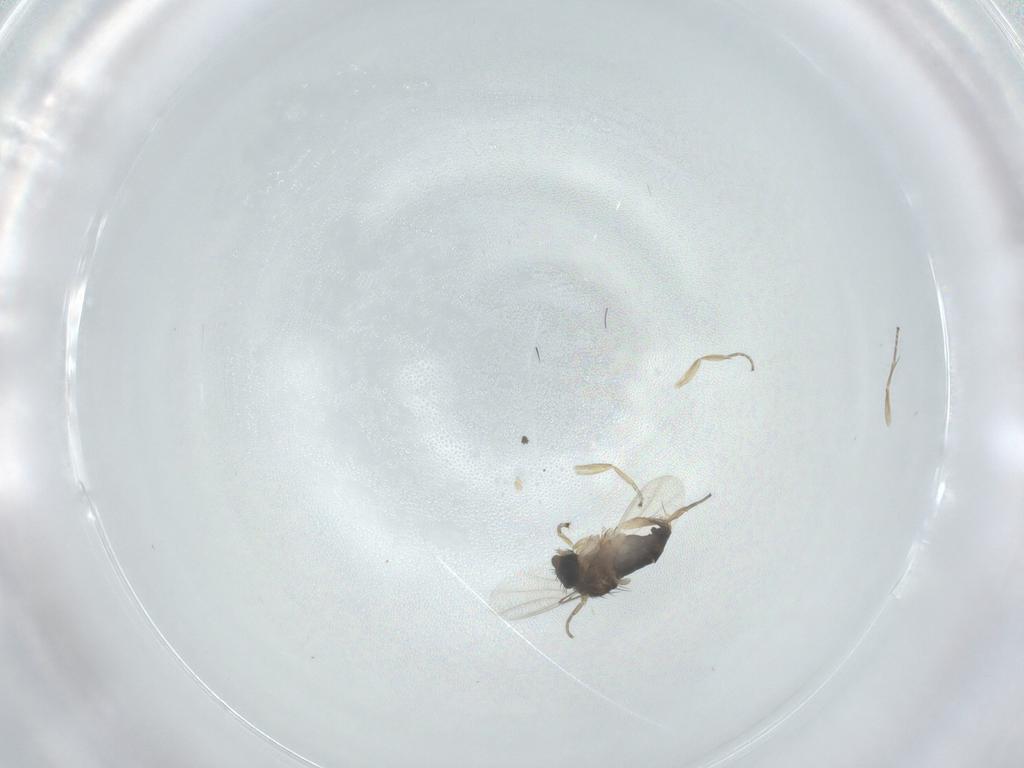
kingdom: Animalia
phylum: Arthropoda
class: Insecta
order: Diptera
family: Phoridae
